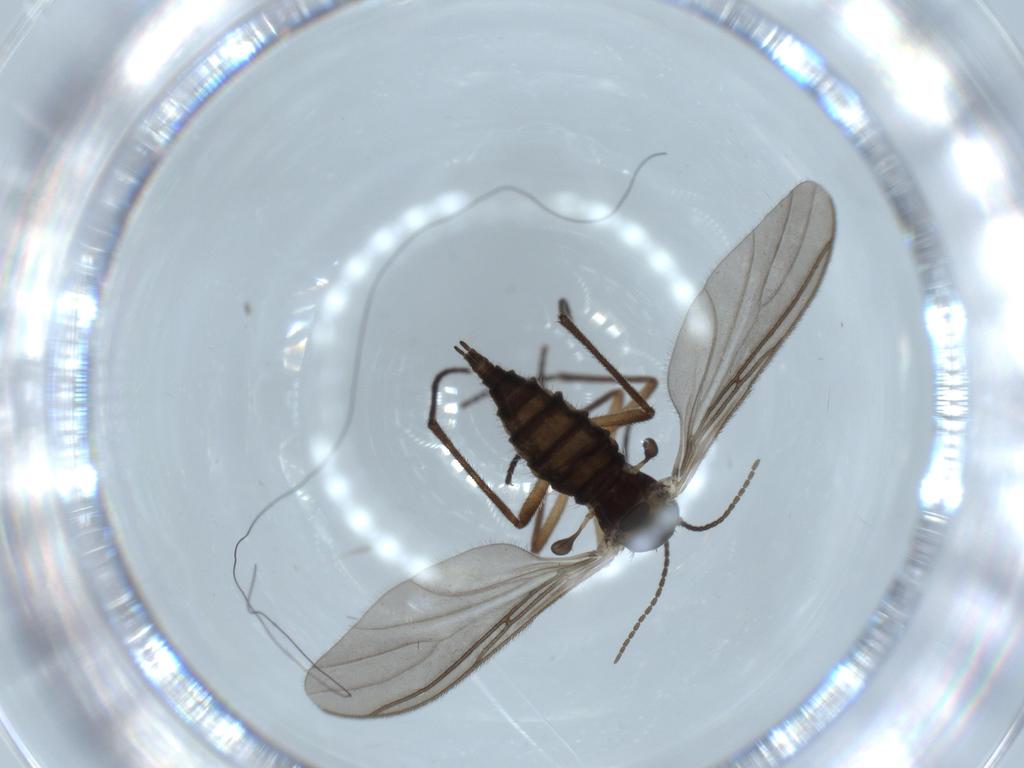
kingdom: Animalia
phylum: Arthropoda
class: Insecta
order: Diptera
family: Sciaridae
